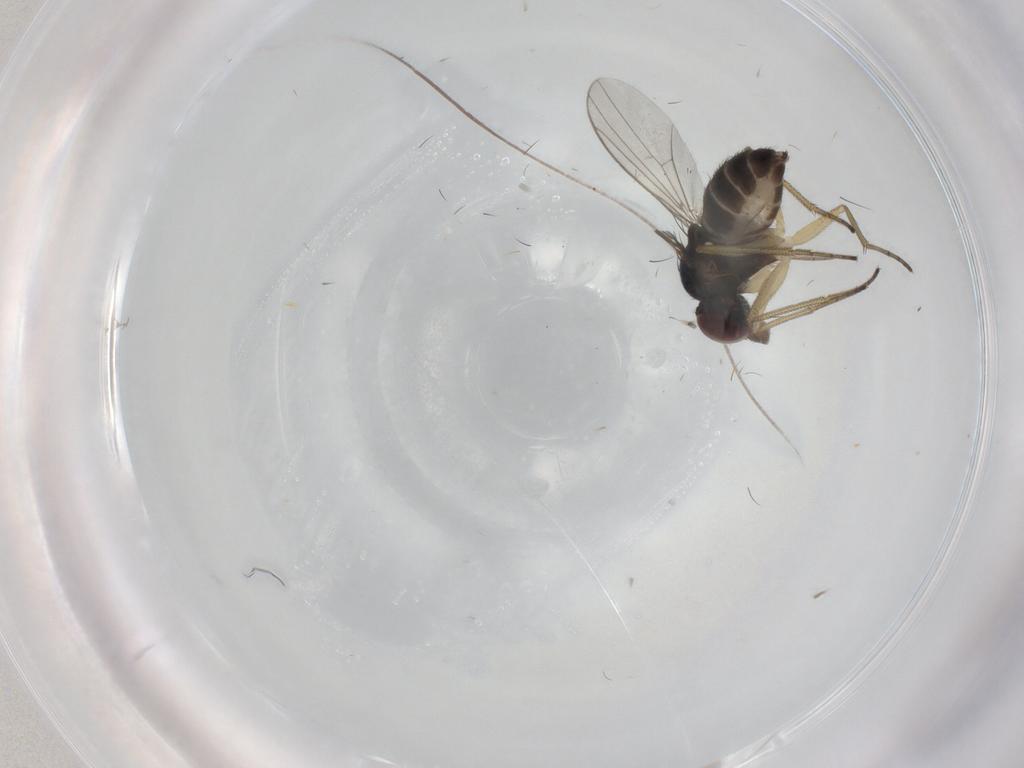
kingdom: Animalia
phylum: Arthropoda
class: Insecta
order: Diptera
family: Dolichopodidae
